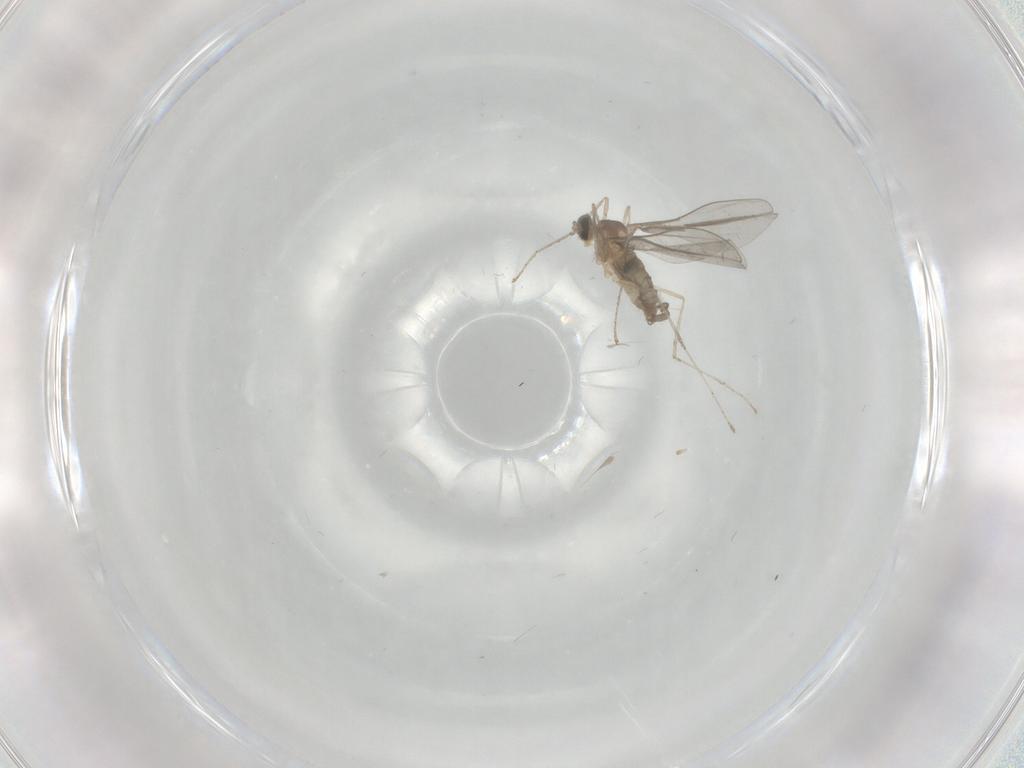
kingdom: Animalia
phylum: Arthropoda
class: Insecta
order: Diptera
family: Cecidomyiidae
